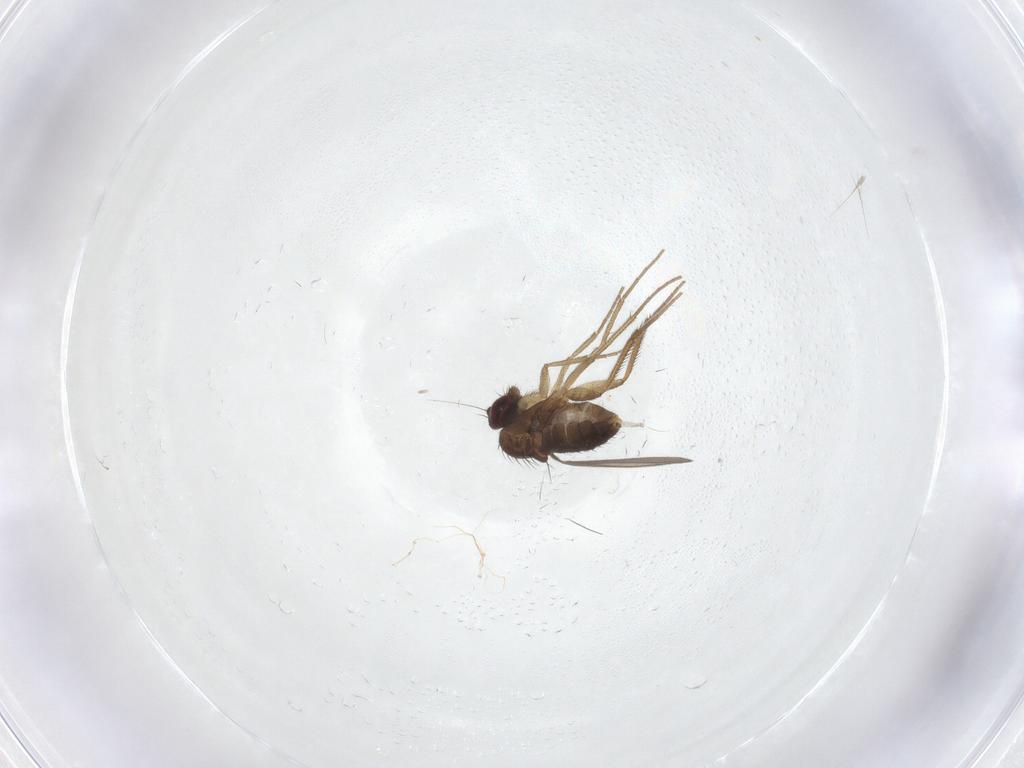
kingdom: Animalia
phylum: Arthropoda
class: Insecta
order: Diptera
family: Dolichopodidae
